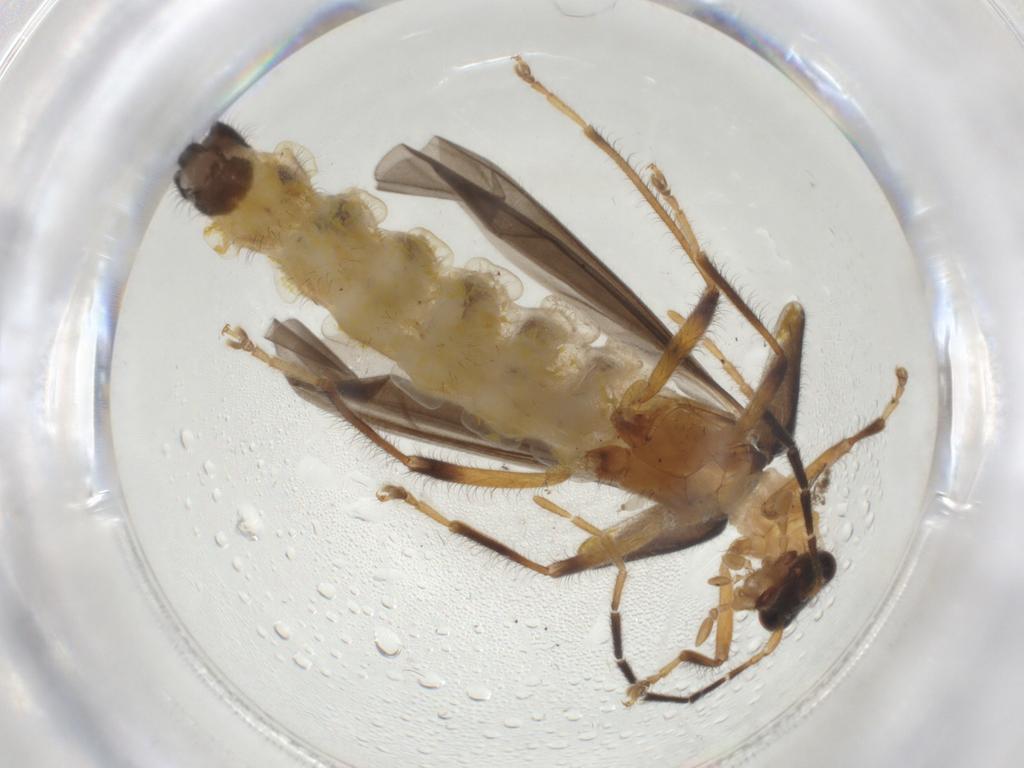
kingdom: Animalia
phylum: Arthropoda
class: Insecta
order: Coleoptera
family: Cantharidae
